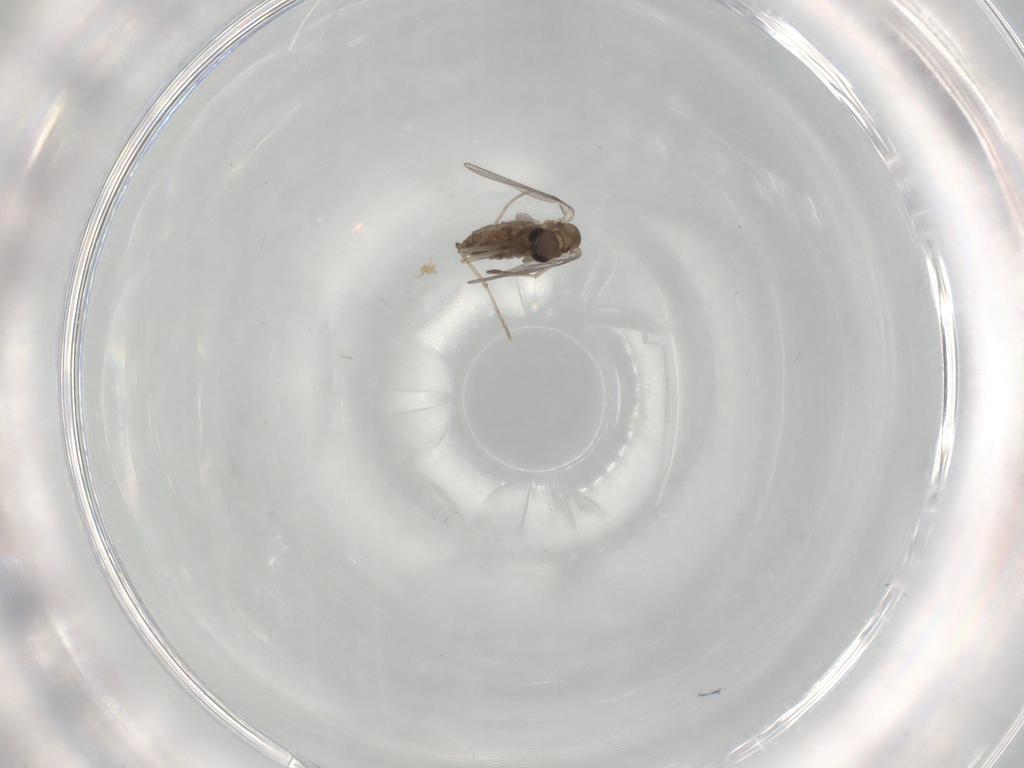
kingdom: Animalia
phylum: Arthropoda
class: Insecta
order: Diptera
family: Phoridae
